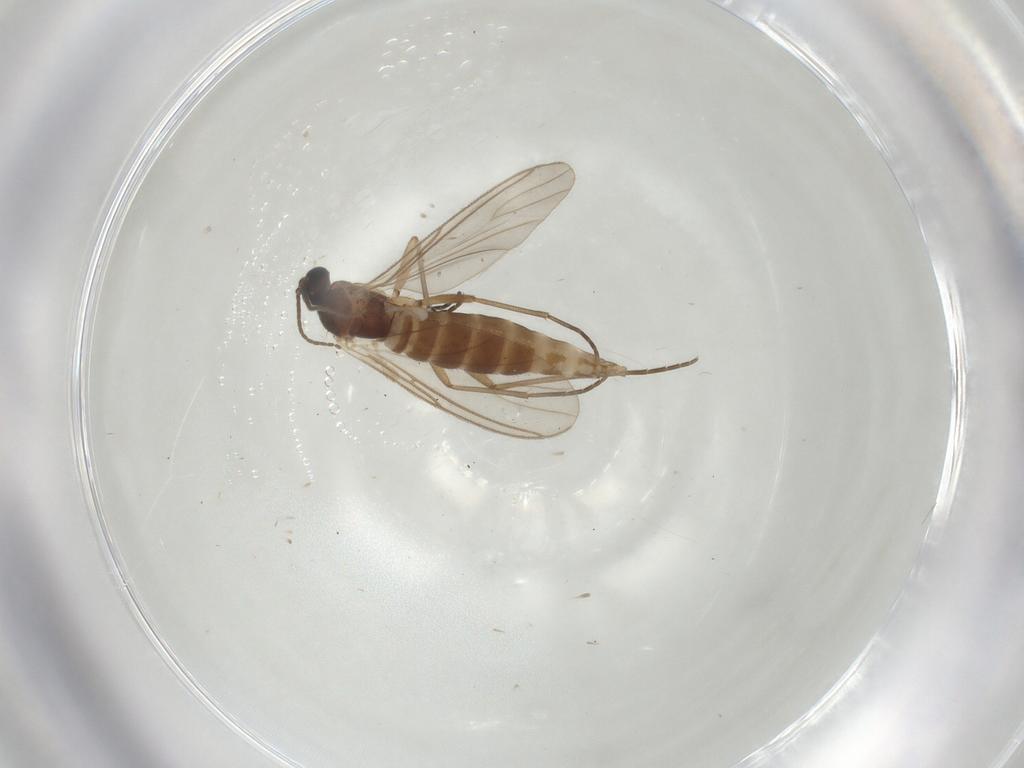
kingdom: Animalia
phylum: Arthropoda
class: Insecta
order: Diptera
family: Sciaridae
